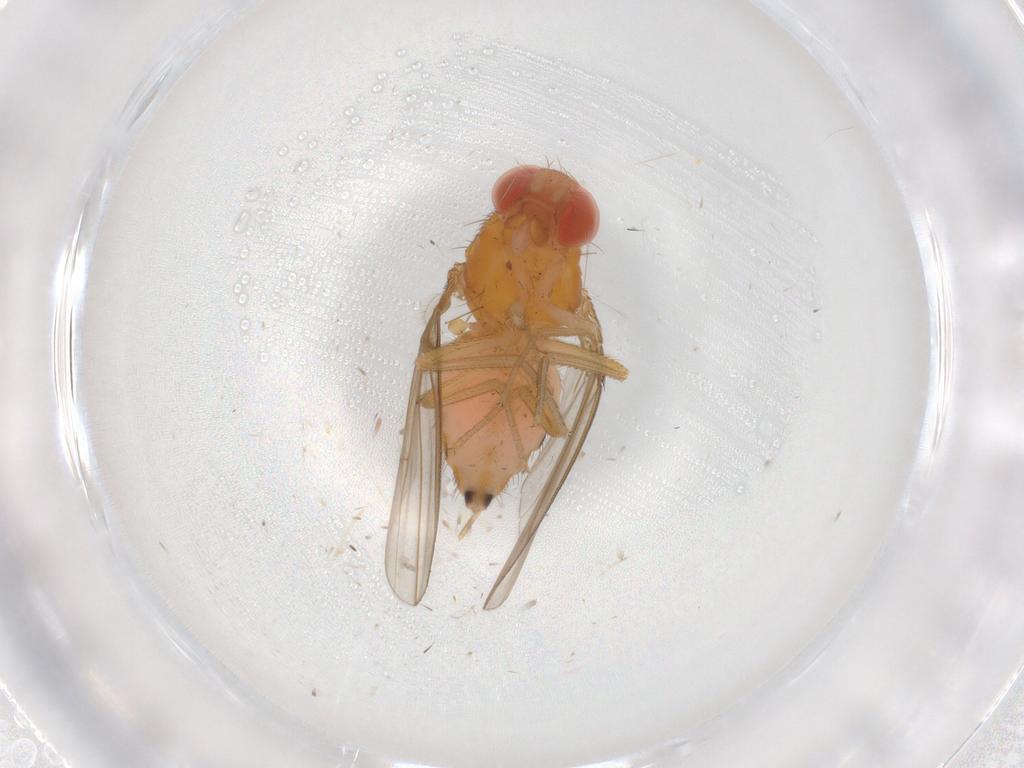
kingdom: Animalia
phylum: Arthropoda
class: Insecta
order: Diptera
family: Drosophilidae
